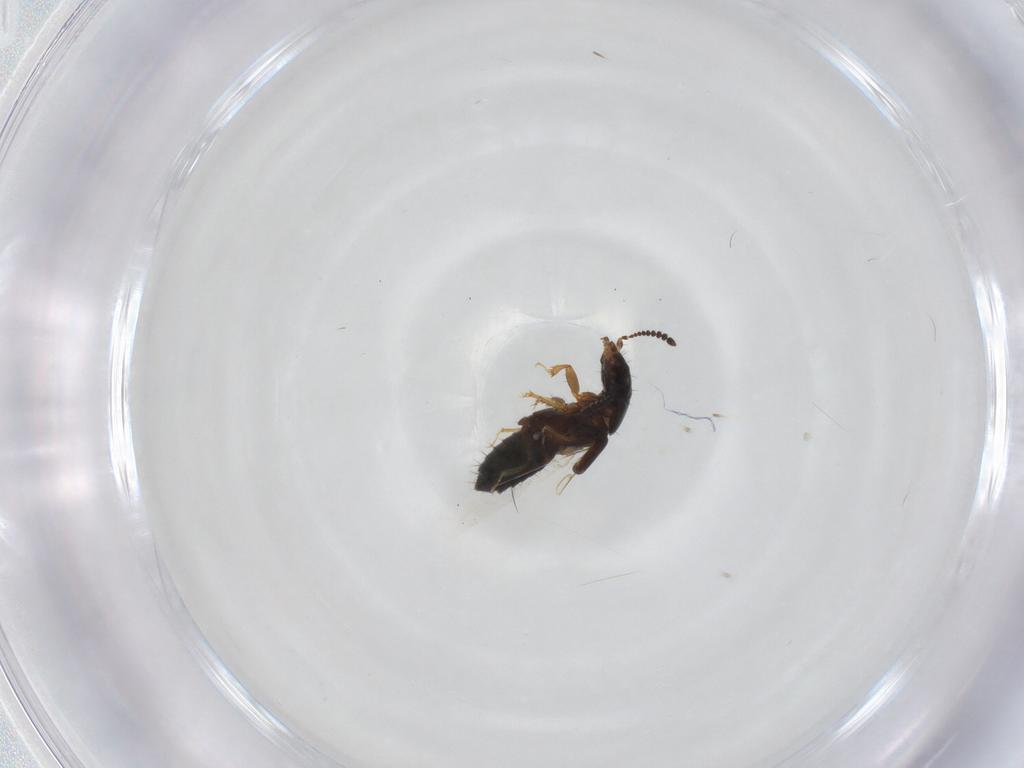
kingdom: Animalia
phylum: Arthropoda
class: Insecta
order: Coleoptera
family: Staphylinidae
